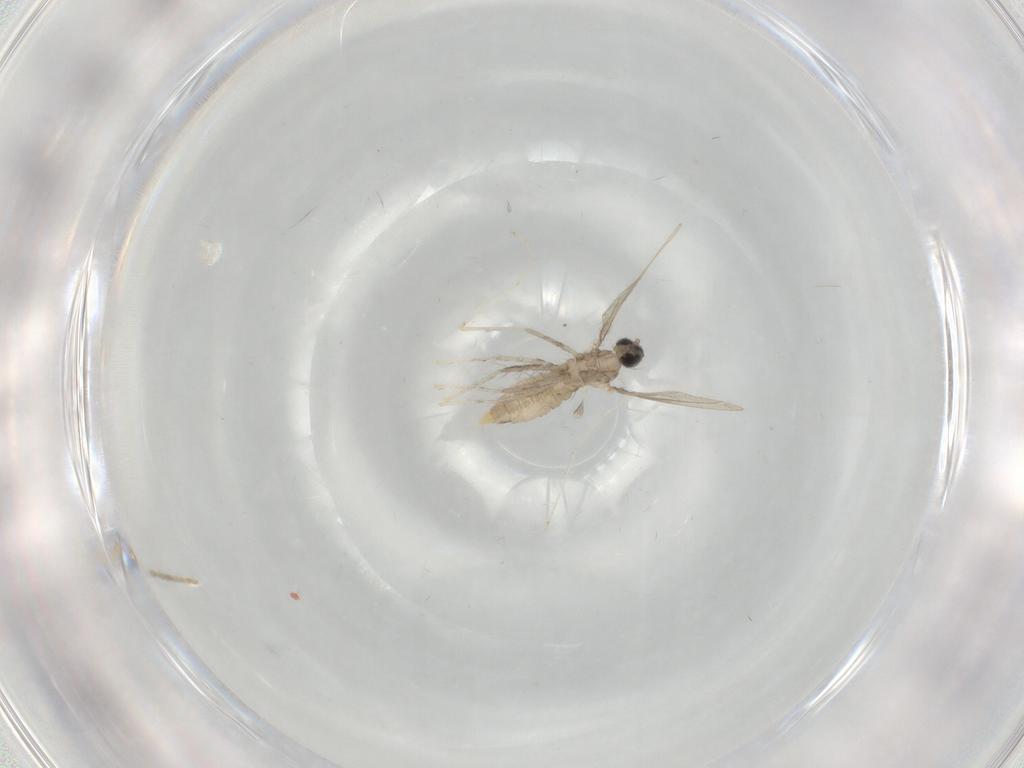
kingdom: Animalia
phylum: Arthropoda
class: Insecta
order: Diptera
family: Cecidomyiidae
